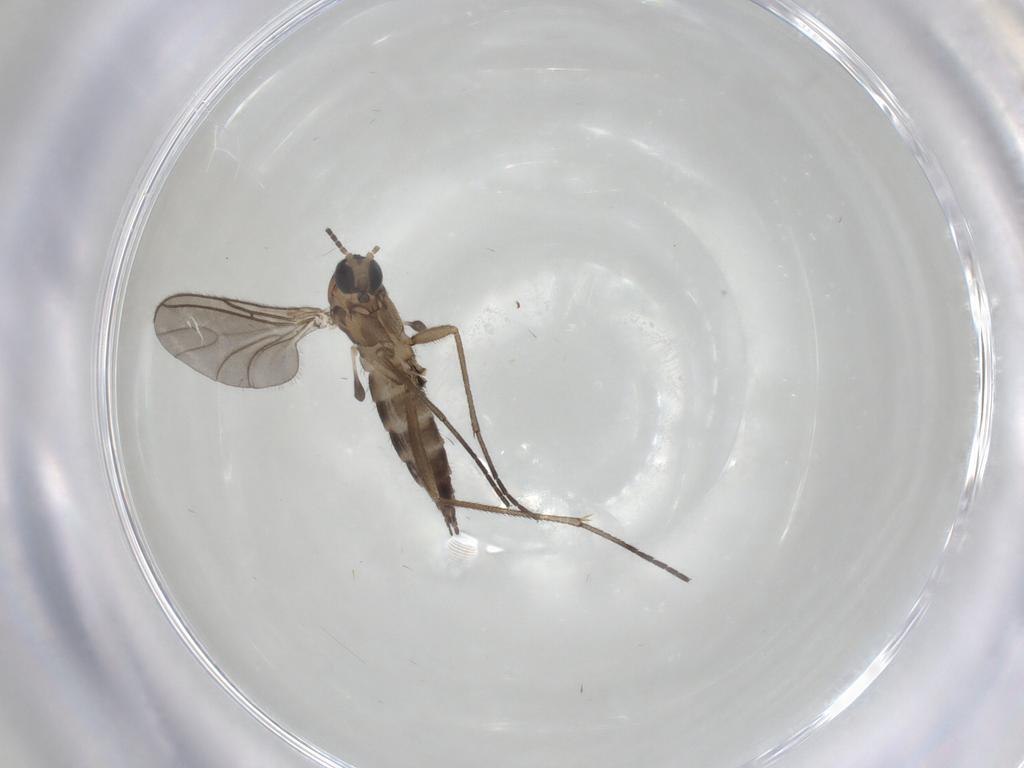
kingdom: Animalia
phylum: Arthropoda
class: Insecta
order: Diptera
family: Sciaridae
